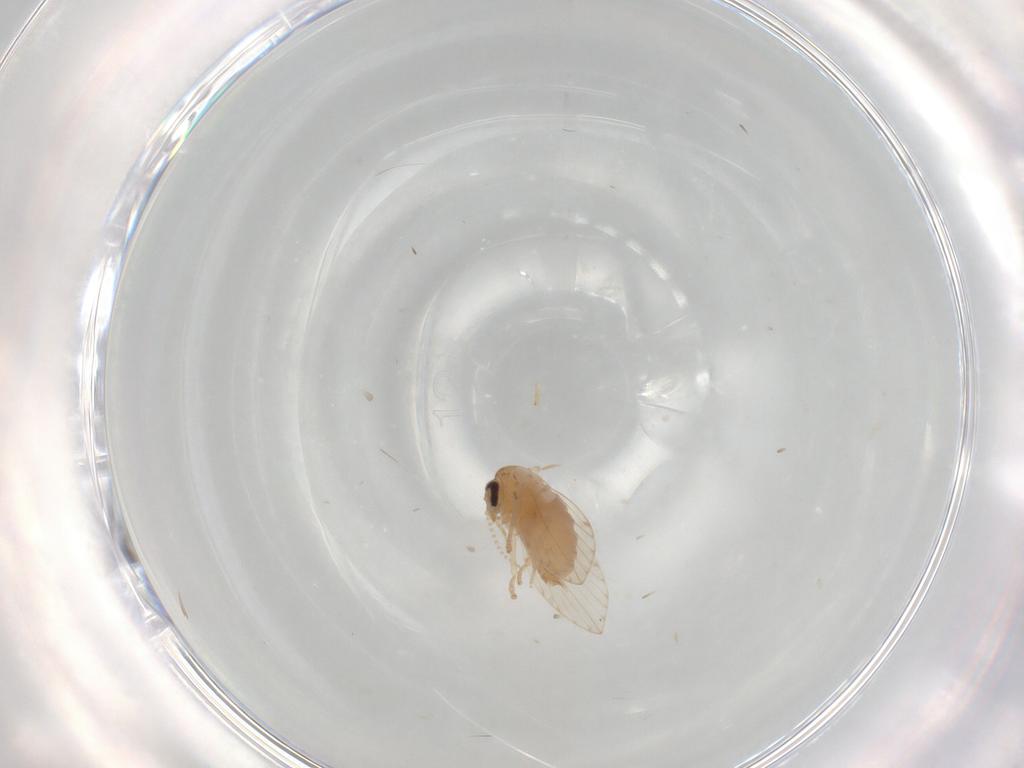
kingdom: Animalia
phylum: Arthropoda
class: Insecta
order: Diptera
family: Psychodidae
